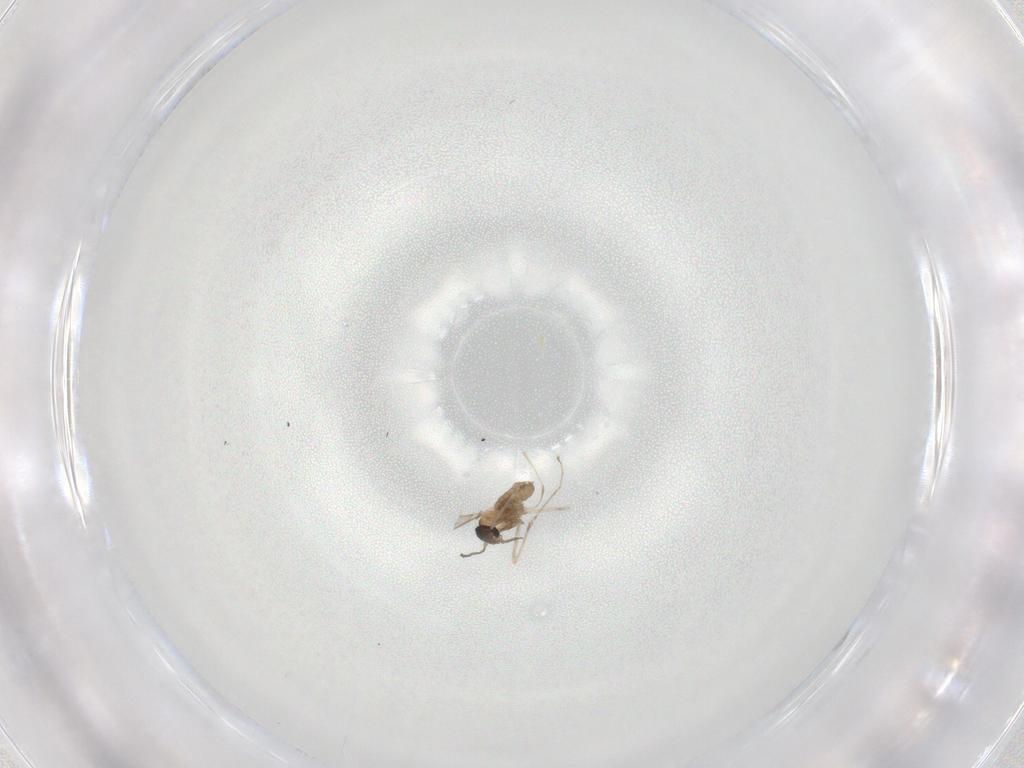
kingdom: Animalia
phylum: Arthropoda
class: Insecta
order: Diptera
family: Cecidomyiidae
